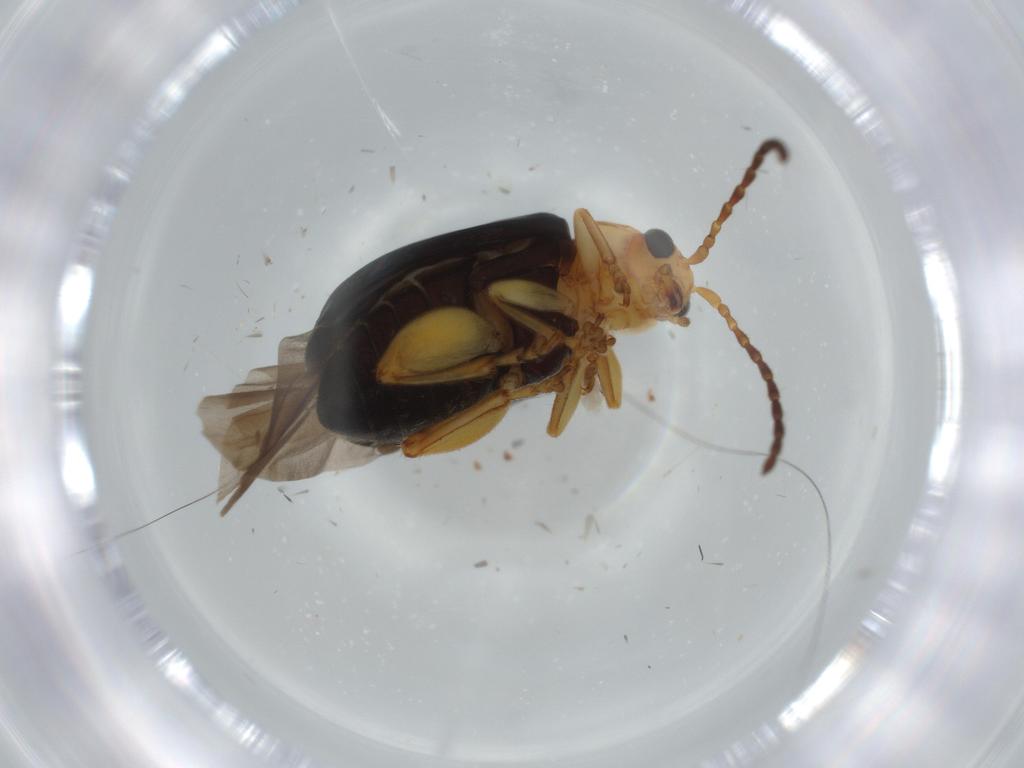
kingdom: Animalia
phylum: Arthropoda
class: Insecta
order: Coleoptera
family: Chrysomelidae
